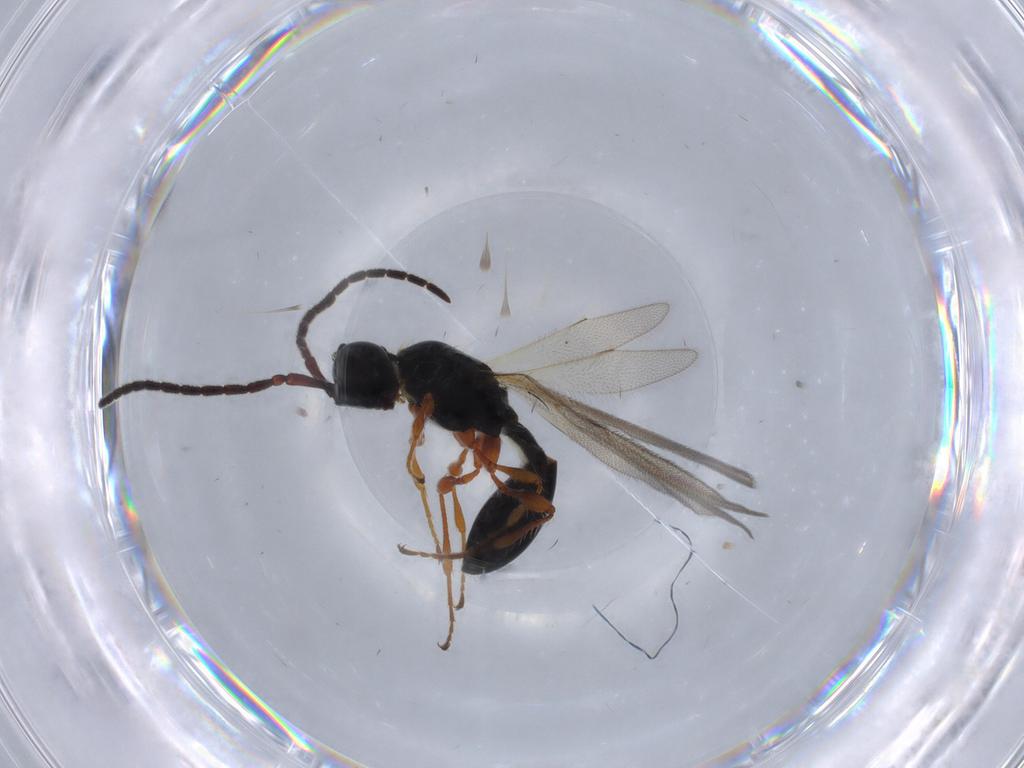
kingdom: Animalia
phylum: Arthropoda
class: Insecta
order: Hymenoptera
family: Diapriidae
